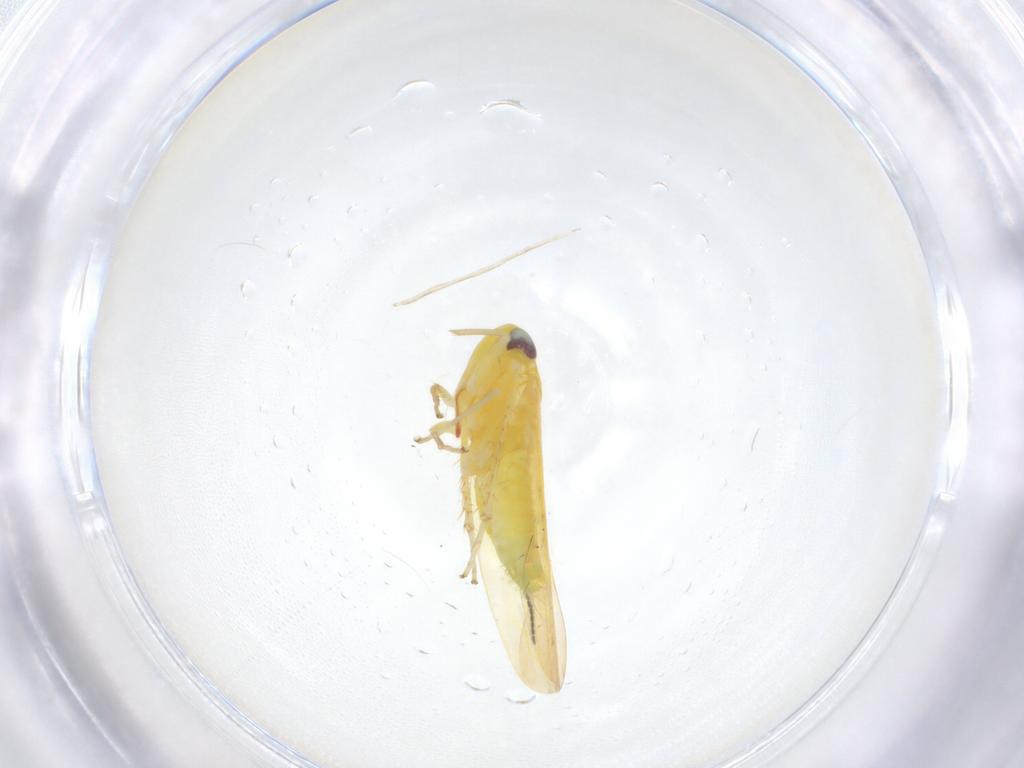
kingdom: Animalia
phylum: Arthropoda
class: Insecta
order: Hemiptera
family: Cicadellidae
